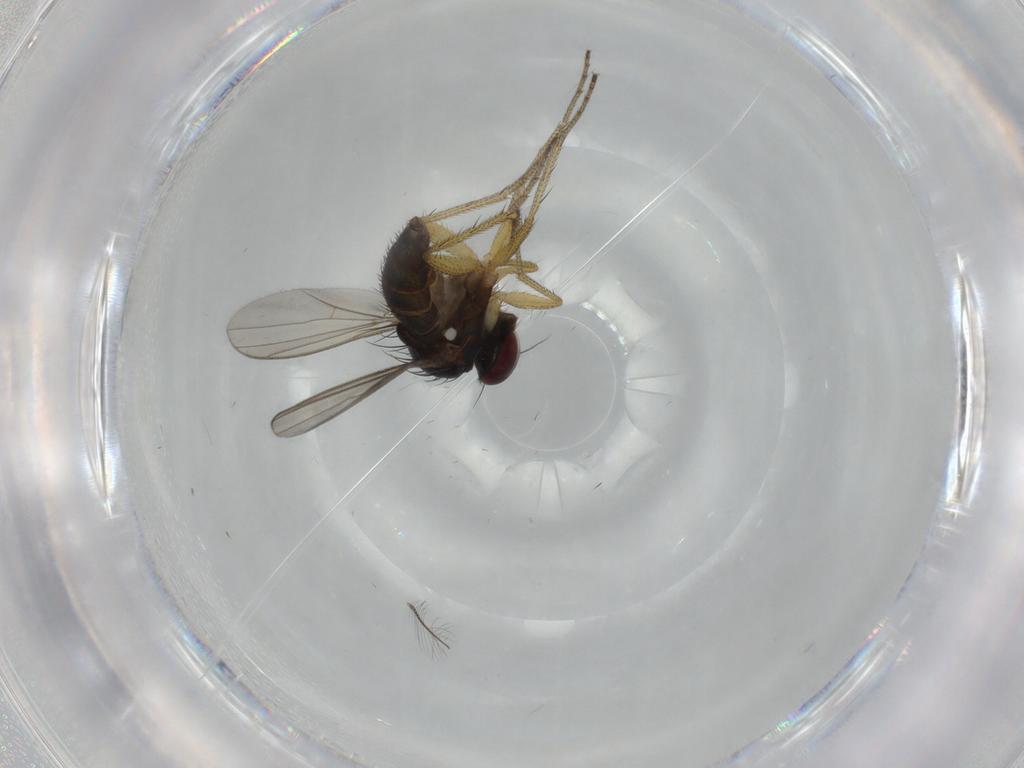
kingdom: Animalia
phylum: Arthropoda
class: Insecta
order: Diptera
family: Dolichopodidae
